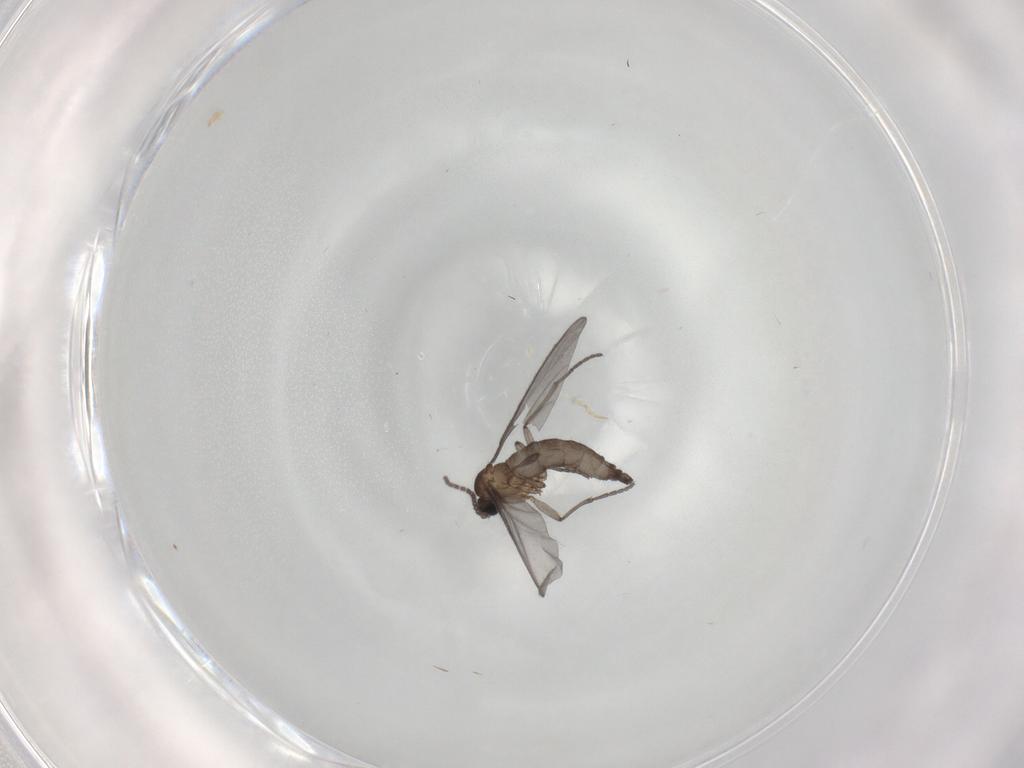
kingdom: Animalia
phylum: Arthropoda
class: Insecta
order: Diptera
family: Sciaridae
